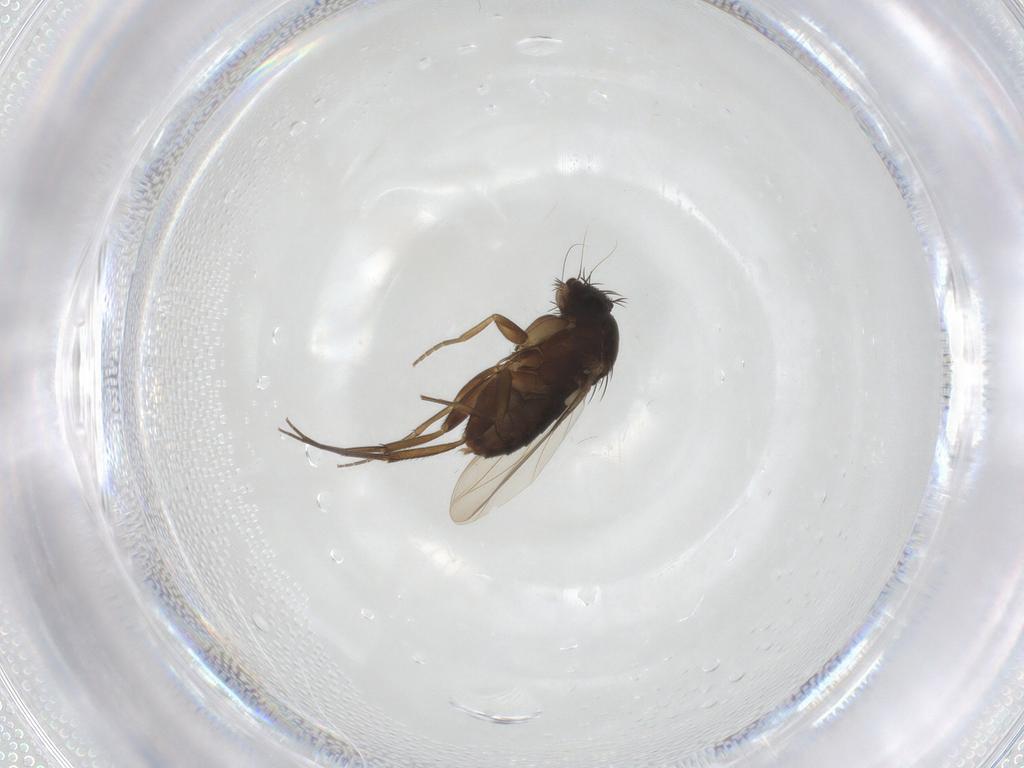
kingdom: Animalia
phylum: Arthropoda
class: Insecta
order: Diptera
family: Phoridae
